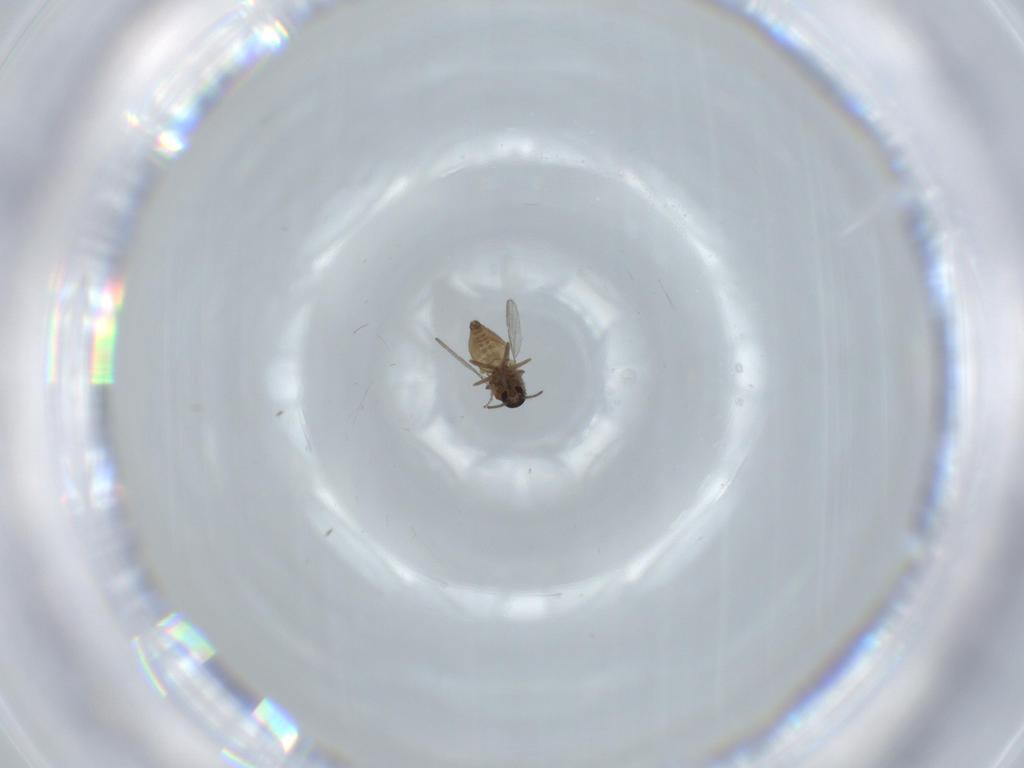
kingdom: Animalia
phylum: Arthropoda
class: Insecta
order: Diptera
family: Ceratopogonidae
